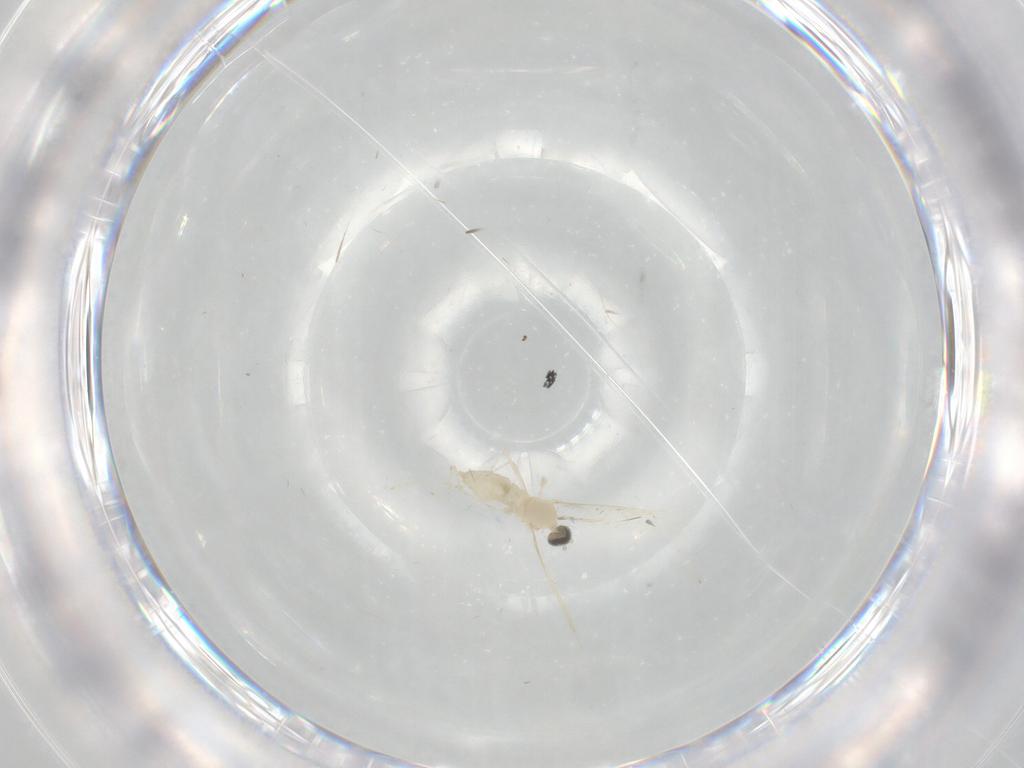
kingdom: Animalia
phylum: Arthropoda
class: Insecta
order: Diptera
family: Cecidomyiidae
